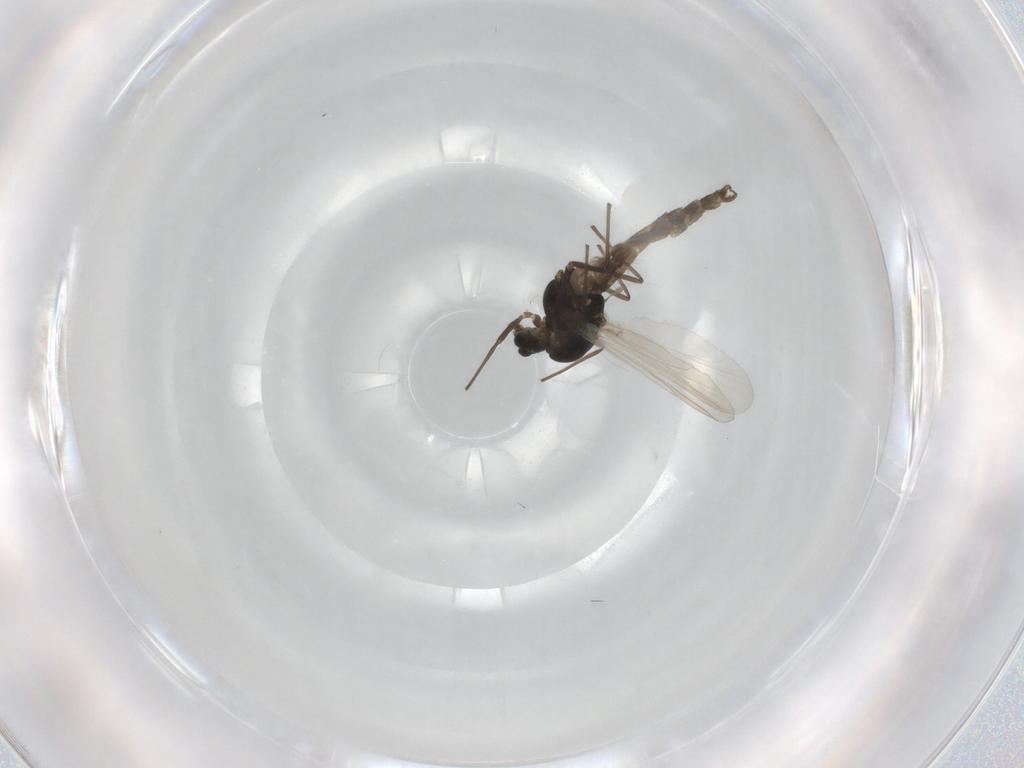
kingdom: Animalia
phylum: Arthropoda
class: Insecta
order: Diptera
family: Chironomidae
